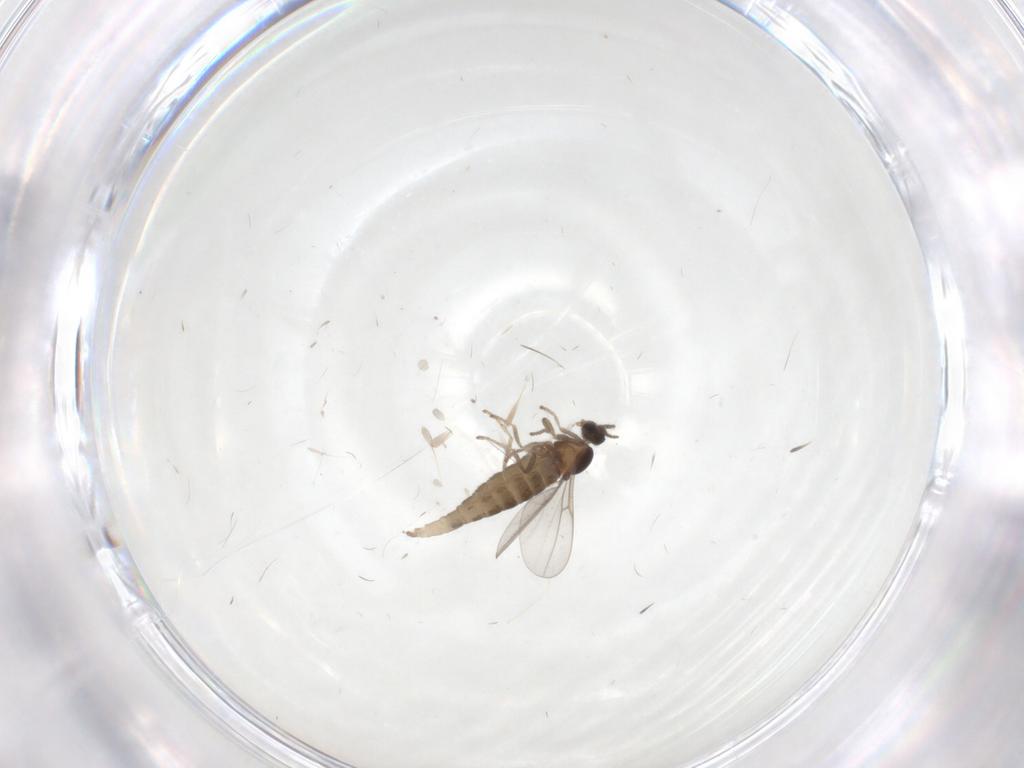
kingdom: Animalia
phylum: Arthropoda
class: Insecta
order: Diptera
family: Cecidomyiidae
